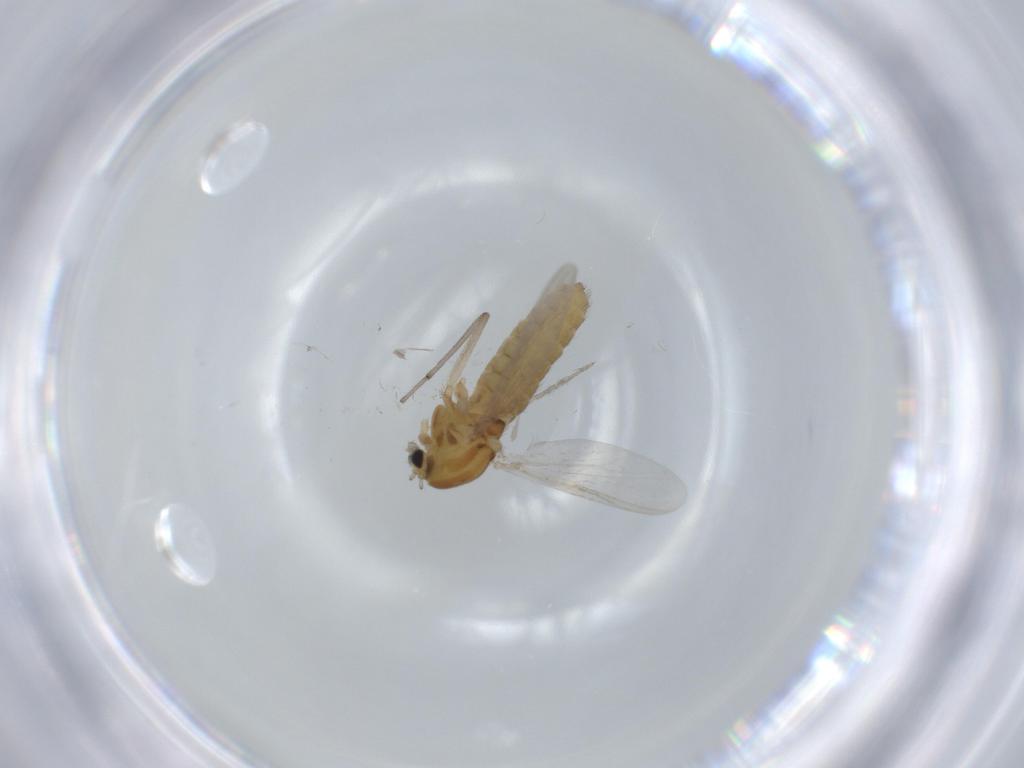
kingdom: Animalia
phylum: Arthropoda
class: Insecta
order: Diptera
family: Chironomidae
